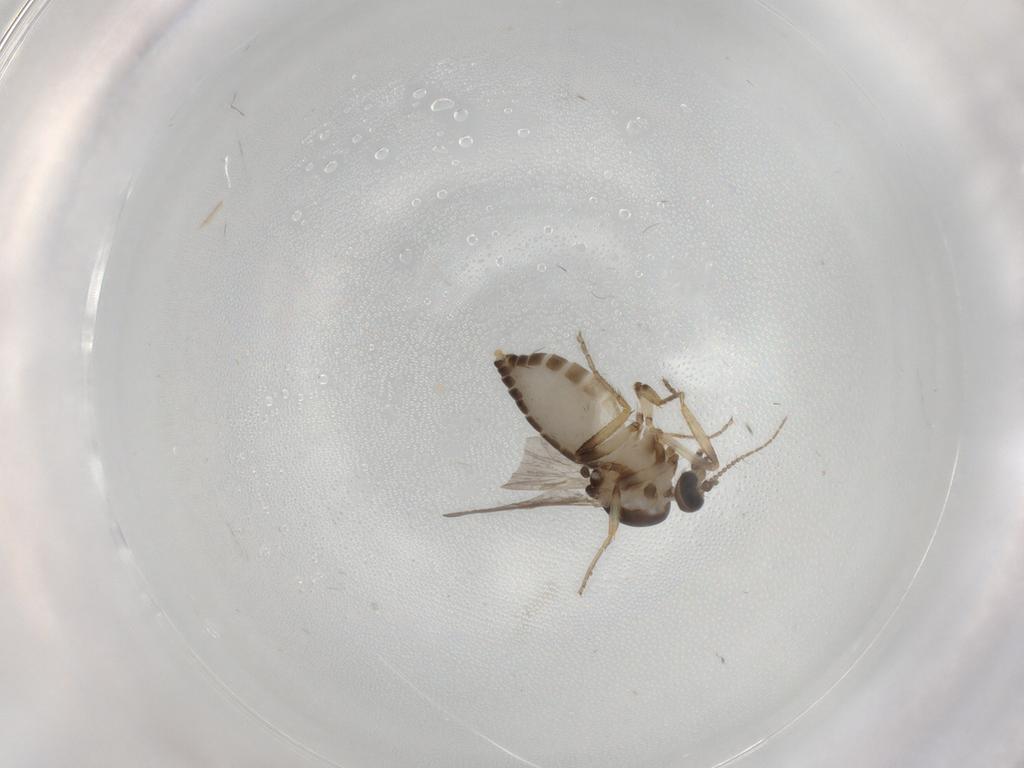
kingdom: Animalia
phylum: Arthropoda
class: Insecta
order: Diptera
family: Ceratopogonidae
